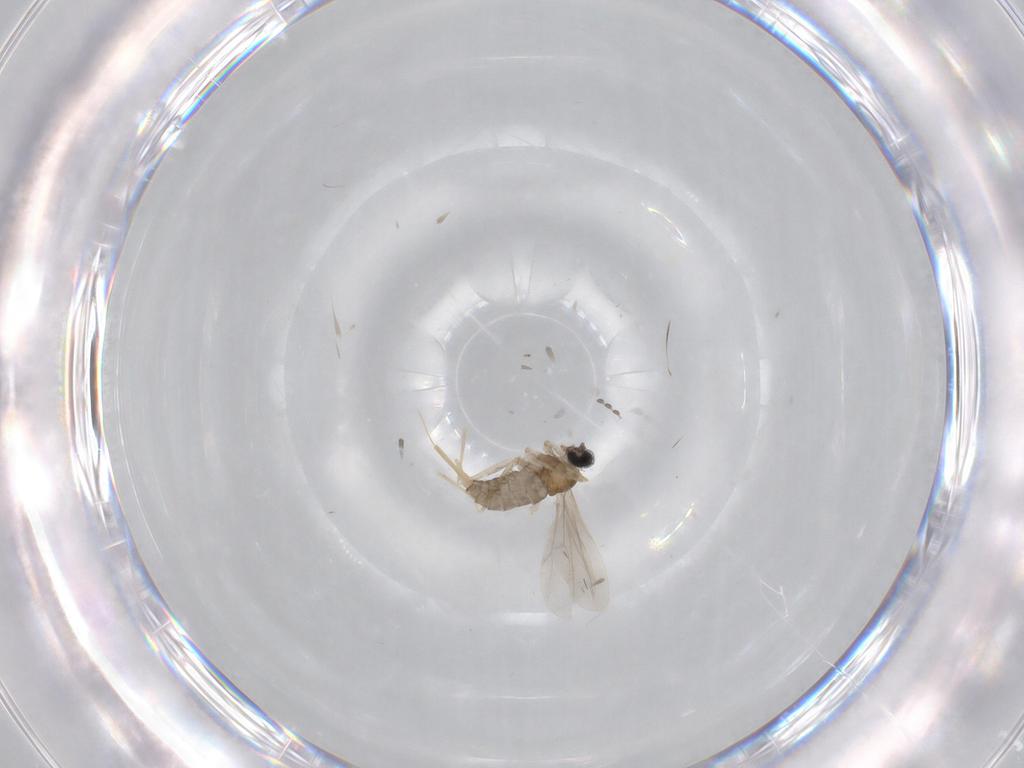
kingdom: Animalia
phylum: Arthropoda
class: Insecta
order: Diptera
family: Cecidomyiidae
